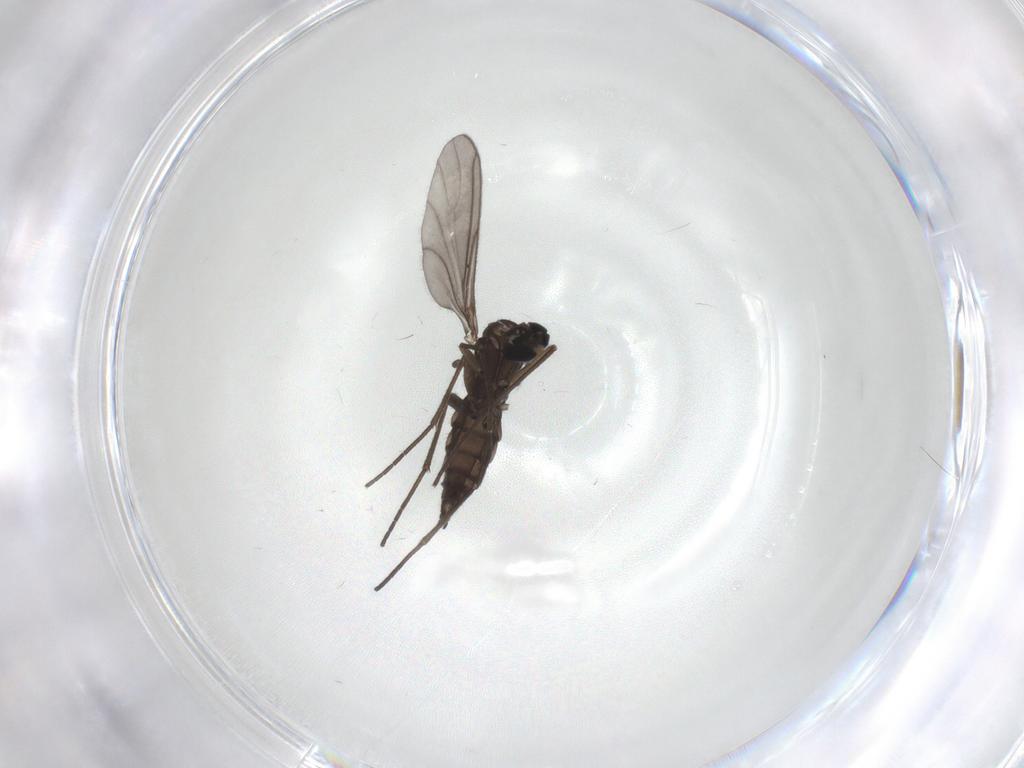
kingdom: Animalia
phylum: Arthropoda
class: Insecta
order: Diptera
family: Sciaridae
